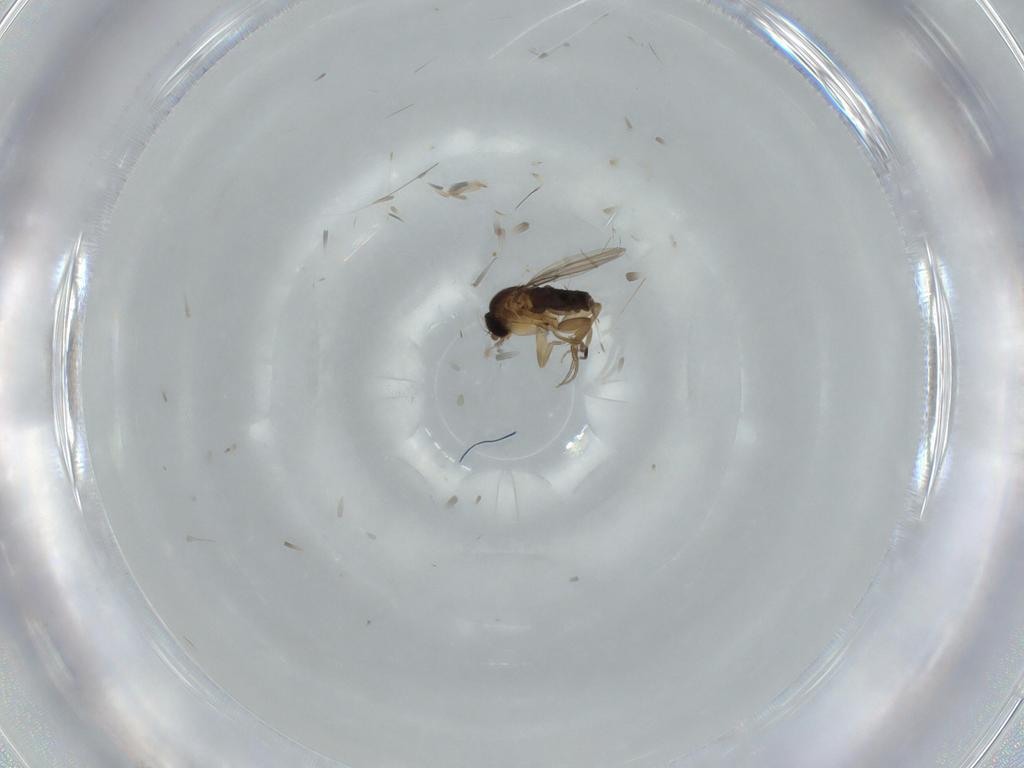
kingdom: Animalia
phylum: Arthropoda
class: Insecta
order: Diptera
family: Phoridae
